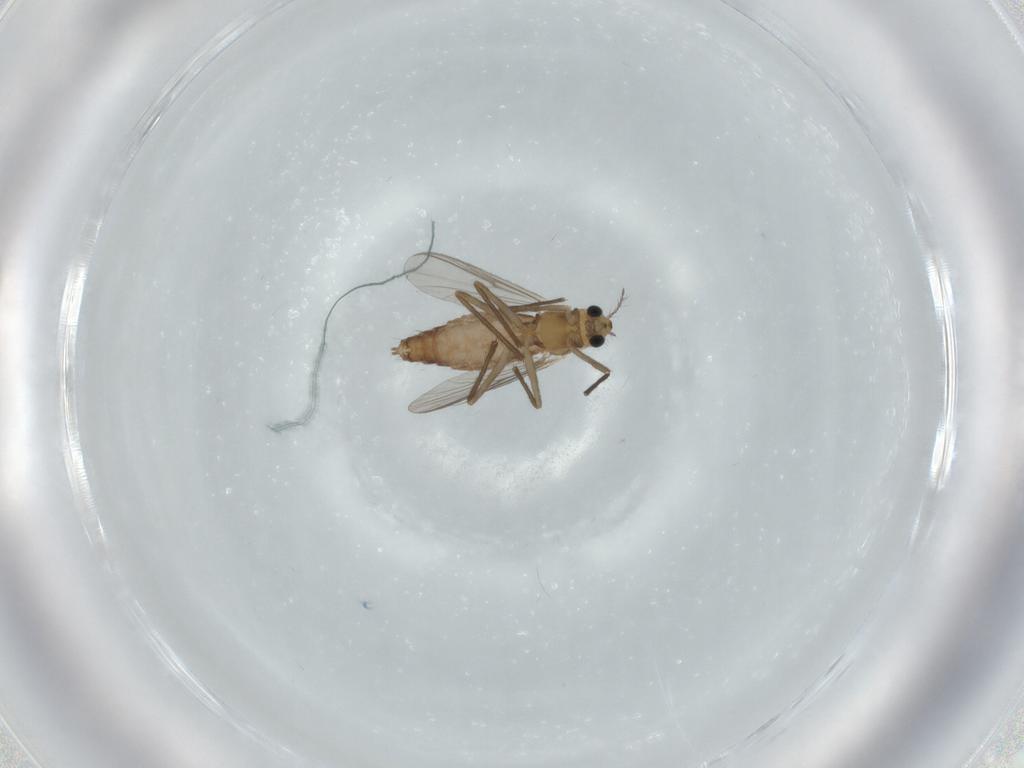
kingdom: Animalia
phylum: Arthropoda
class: Insecta
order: Diptera
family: Chironomidae
